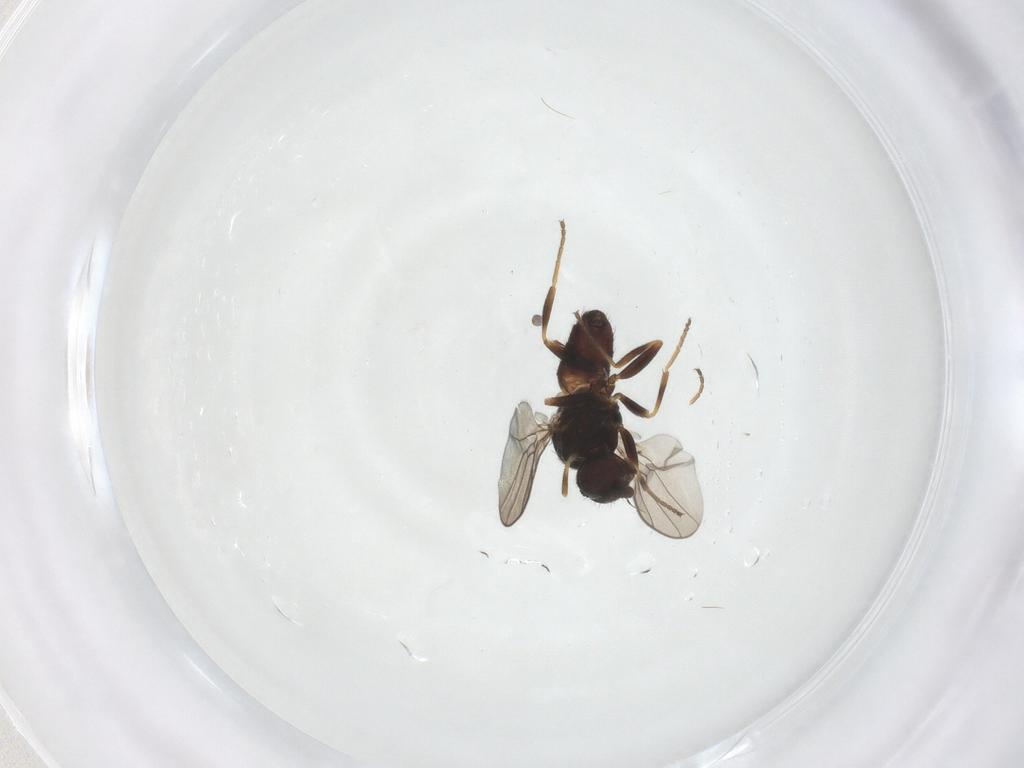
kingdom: Animalia
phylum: Arthropoda
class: Insecta
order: Diptera
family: Chloropidae
